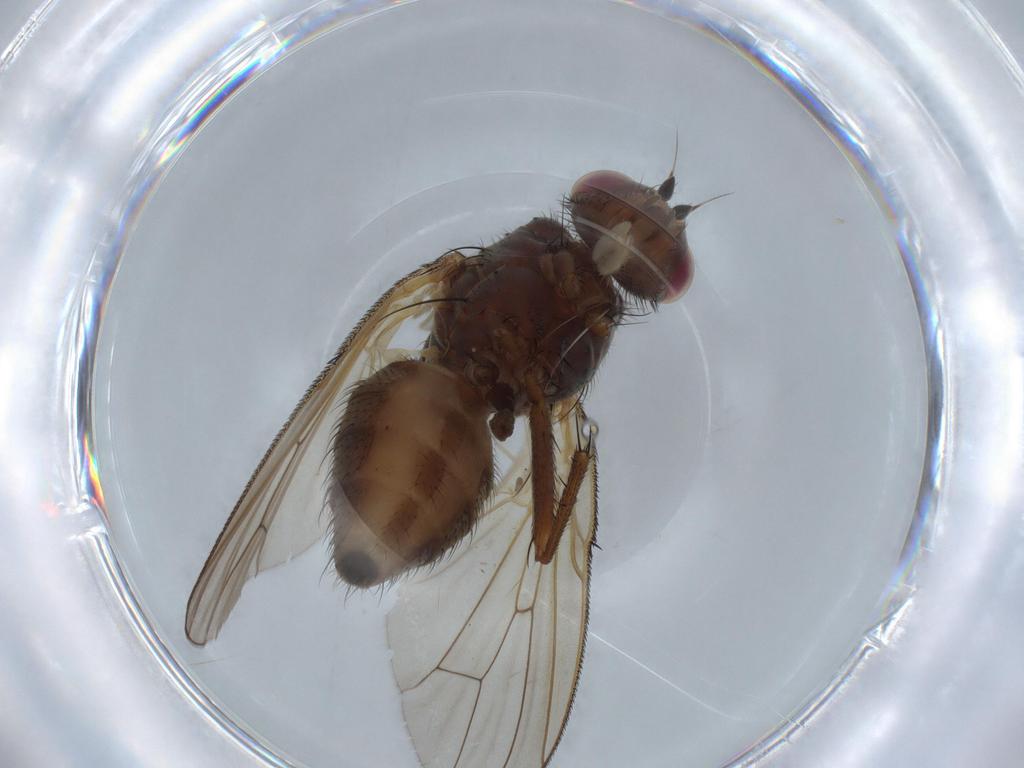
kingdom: Animalia
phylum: Arthropoda
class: Insecta
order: Diptera
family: Anthomyiidae
